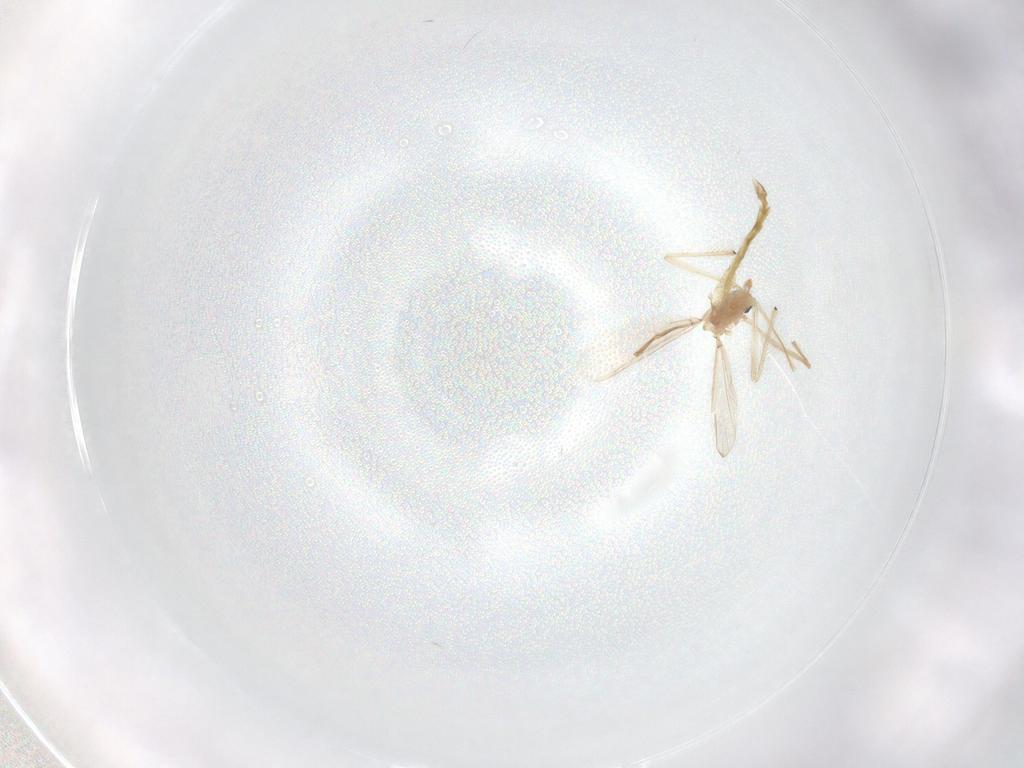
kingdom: Animalia
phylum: Arthropoda
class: Insecta
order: Diptera
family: Chironomidae
